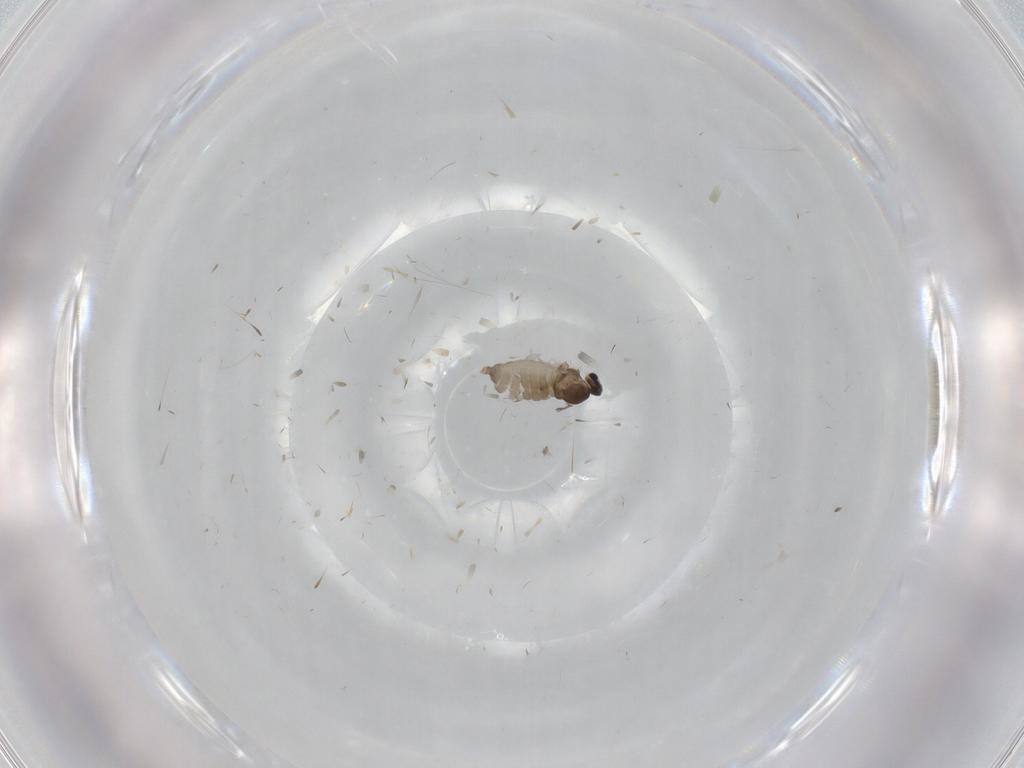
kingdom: Animalia
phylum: Arthropoda
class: Insecta
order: Diptera
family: Cecidomyiidae
